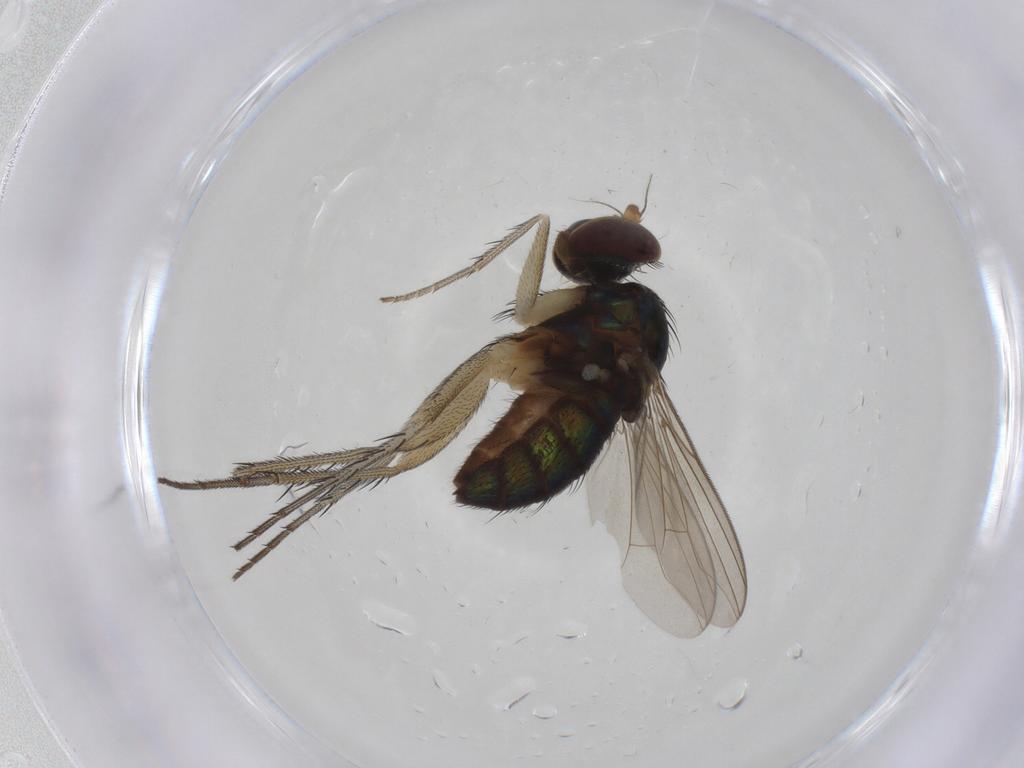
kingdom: Animalia
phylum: Arthropoda
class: Insecta
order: Diptera
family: Dolichopodidae
